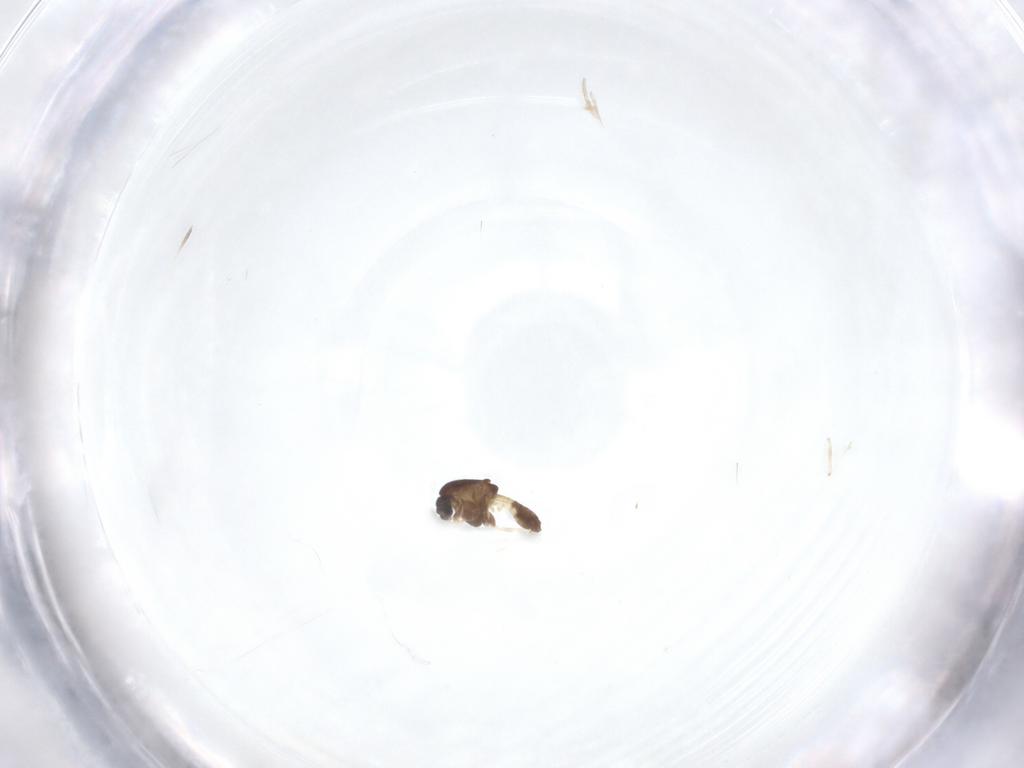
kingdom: Animalia
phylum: Arthropoda
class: Insecta
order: Diptera
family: Chironomidae
